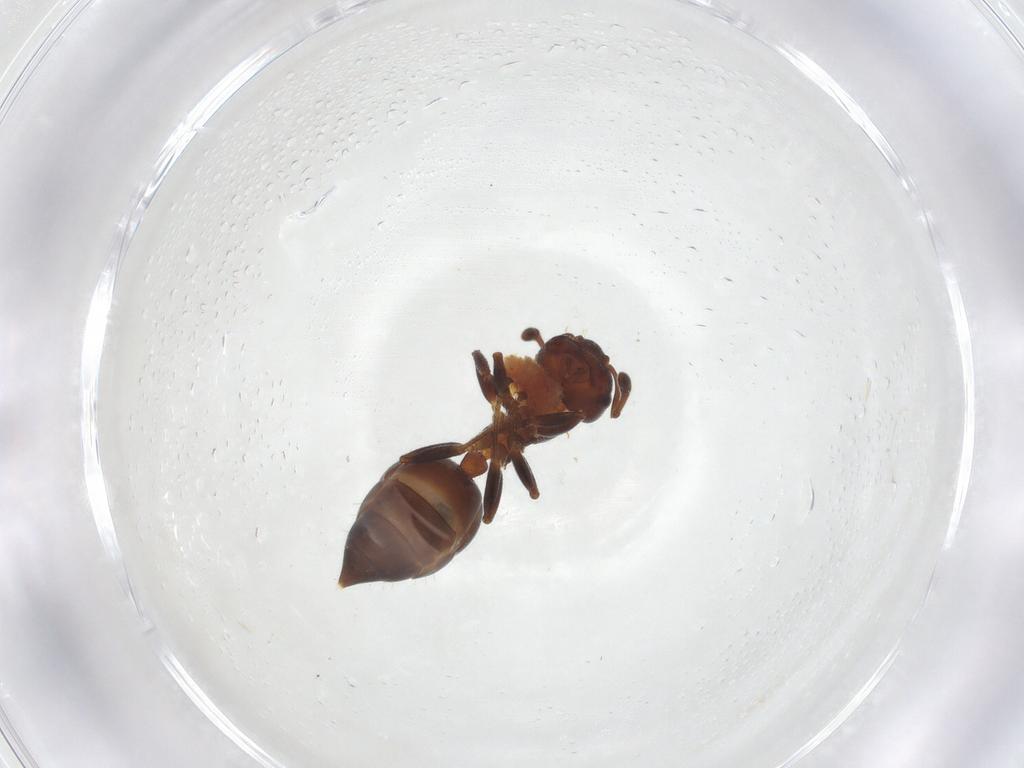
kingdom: Animalia
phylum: Arthropoda
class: Insecta
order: Hymenoptera
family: Formicidae
